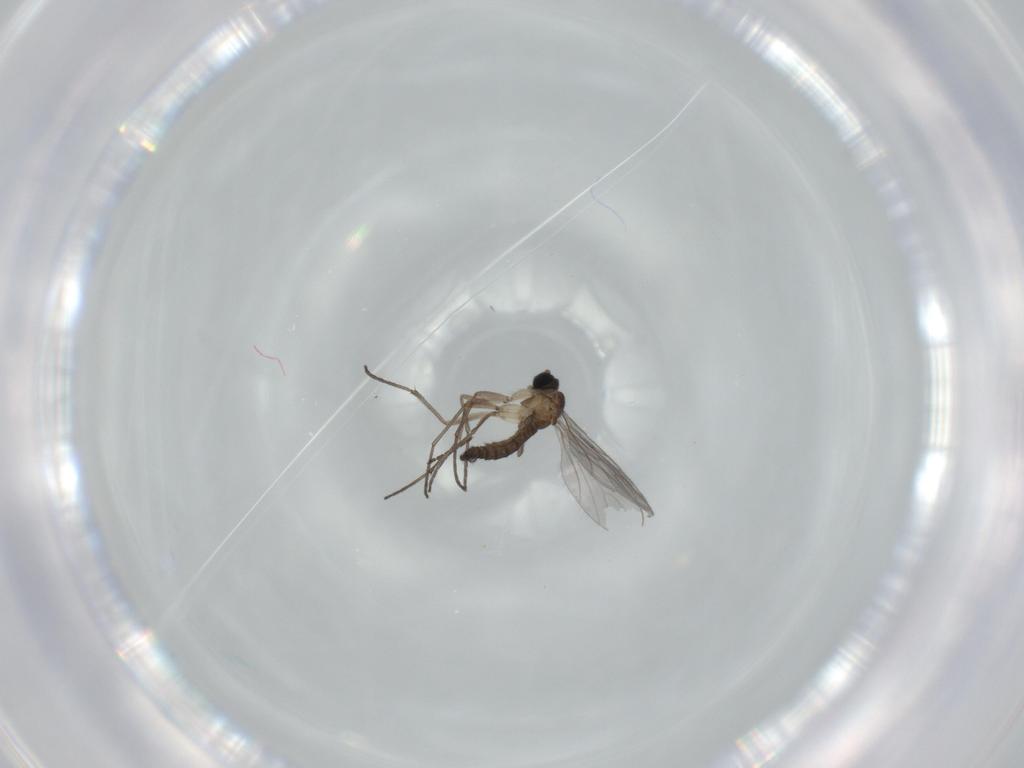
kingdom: Animalia
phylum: Arthropoda
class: Insecta
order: Diptera
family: Sciaridae
